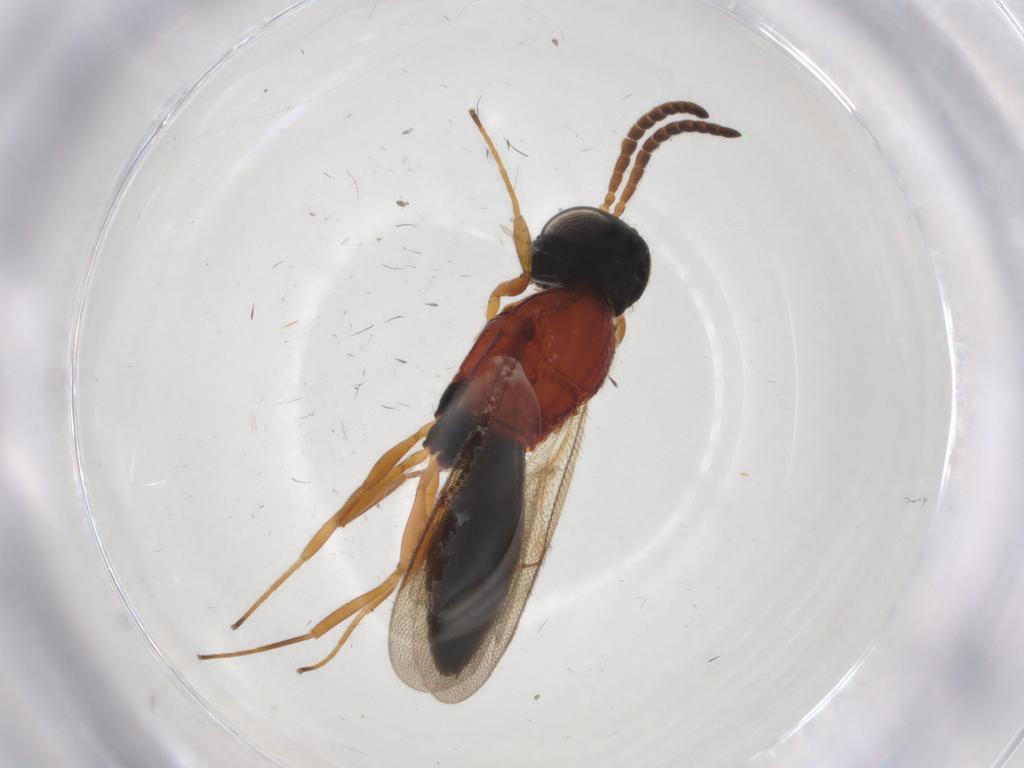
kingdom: Animalia
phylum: Arthropoda
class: Insecta
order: Hymenoptera
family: Scelionidae
